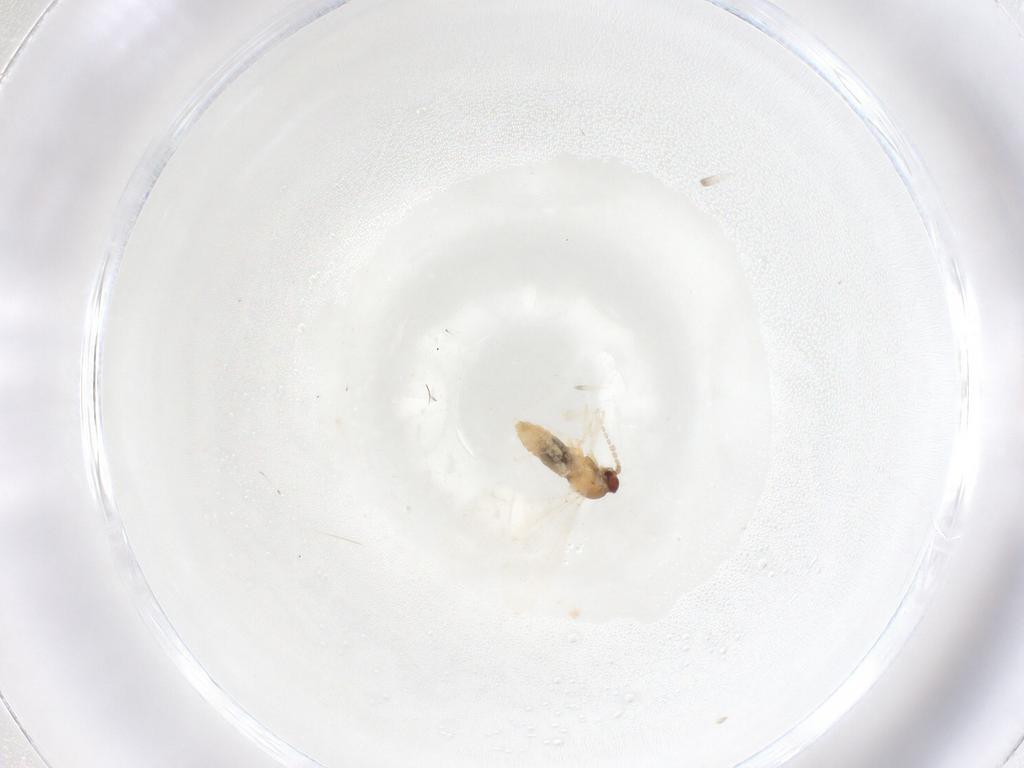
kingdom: Animalia
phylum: Arthropoda
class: Insecta
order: Diptera
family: Cecidomyiidae
